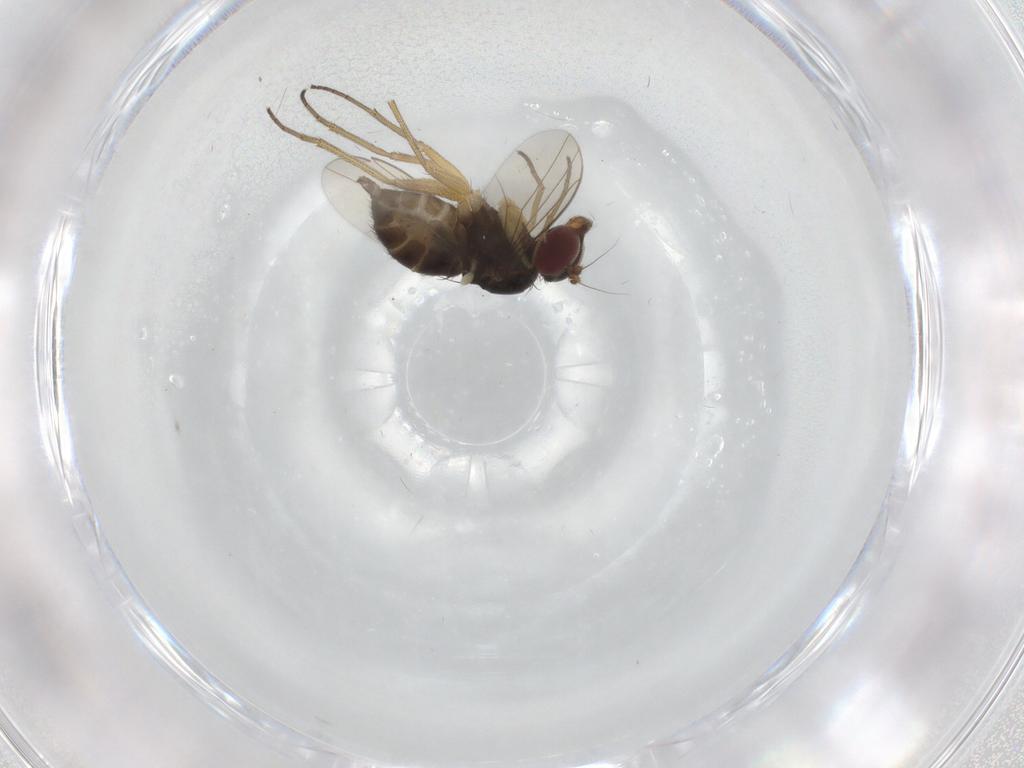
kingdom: Animalia
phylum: Arthropoda
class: Insecta
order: Diptera
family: Dolichopodidae
